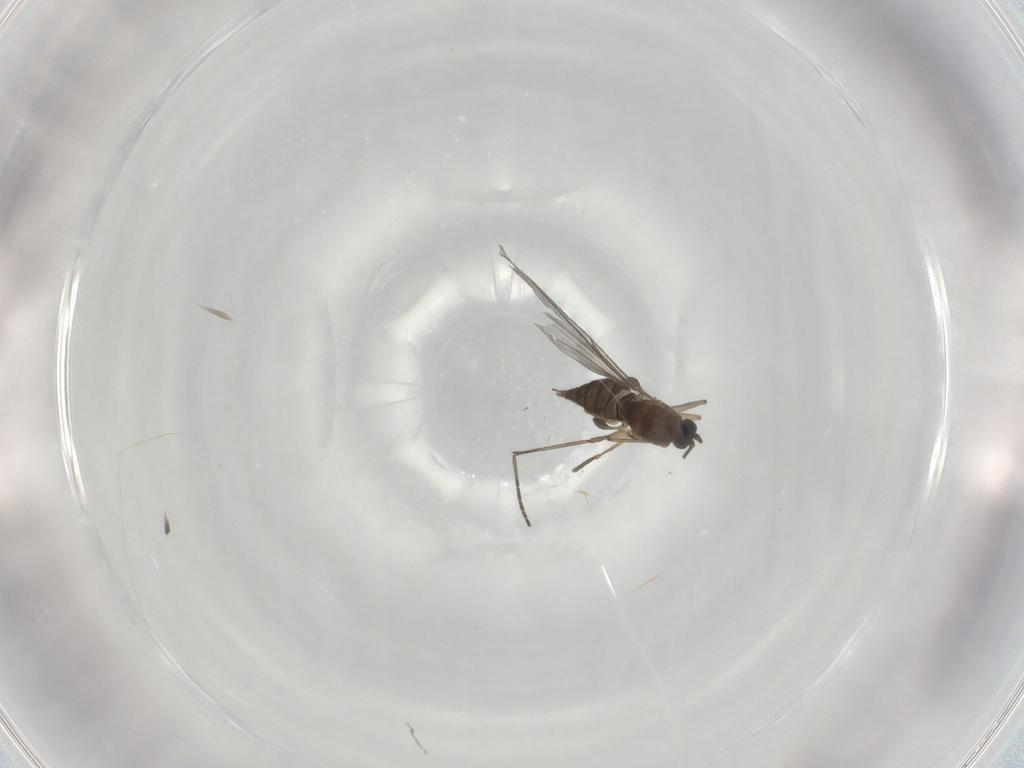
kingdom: Animalia
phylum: Arthropoda
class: Insecta
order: Diptera
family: Sciaridae
